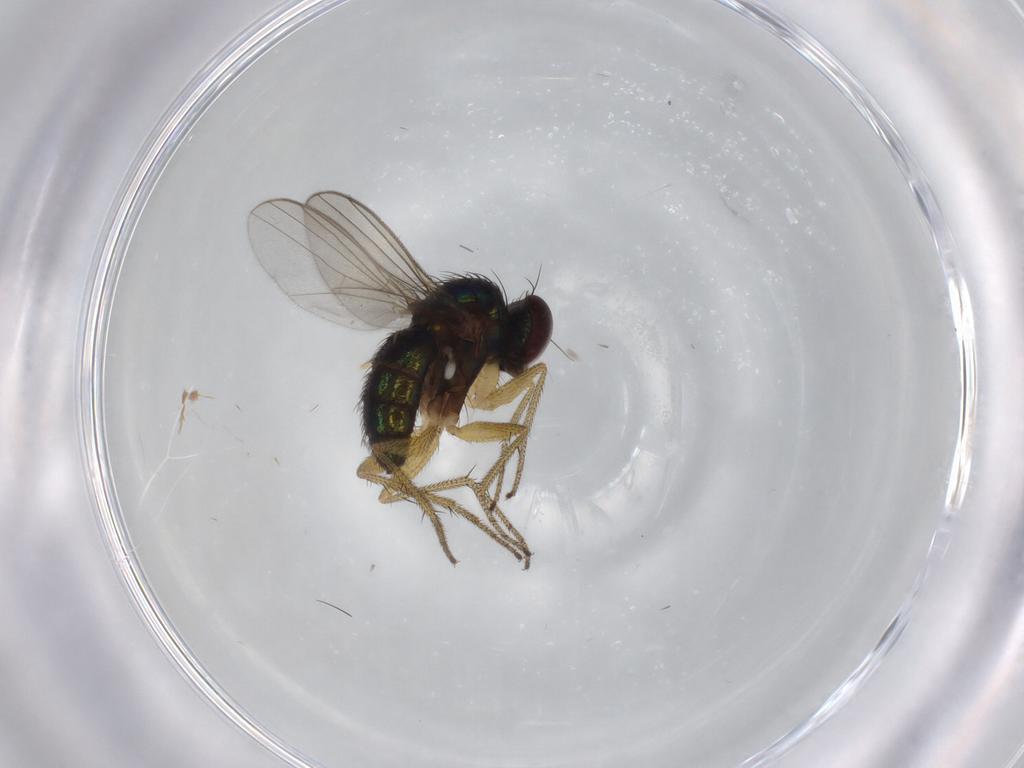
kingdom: Animalia
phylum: Arthropoda
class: Insecta
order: Diptera
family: Dolichopodidae
